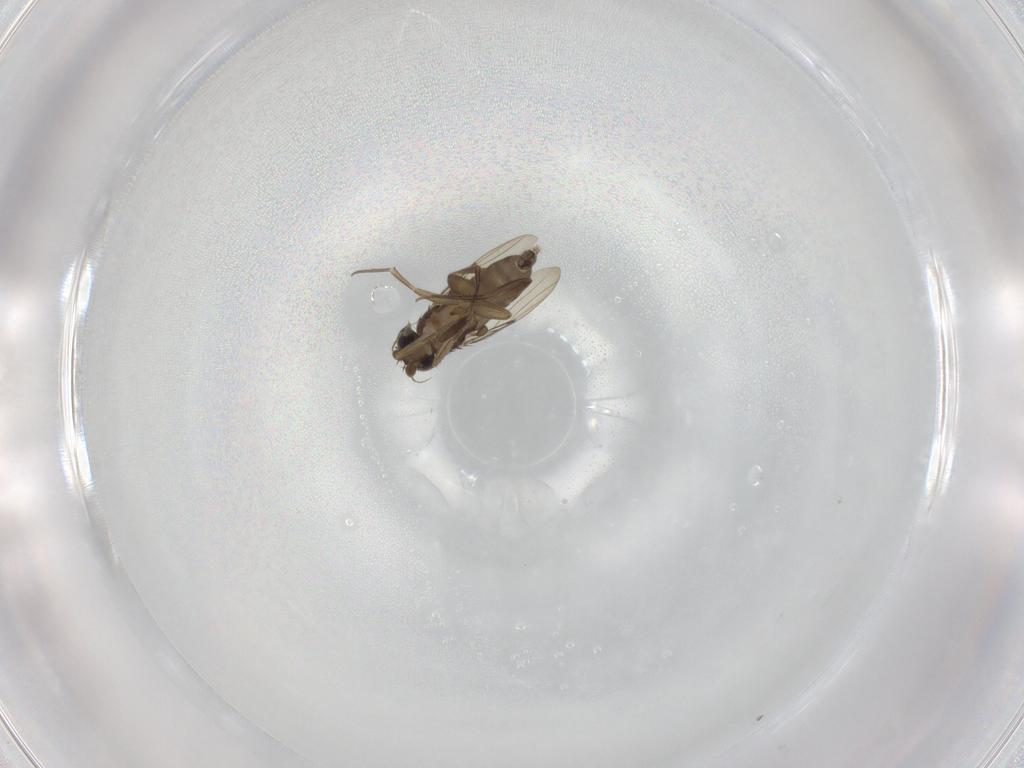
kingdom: Animalia
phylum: Arthropoda
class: Insecta
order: Diptera
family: Phoridae
